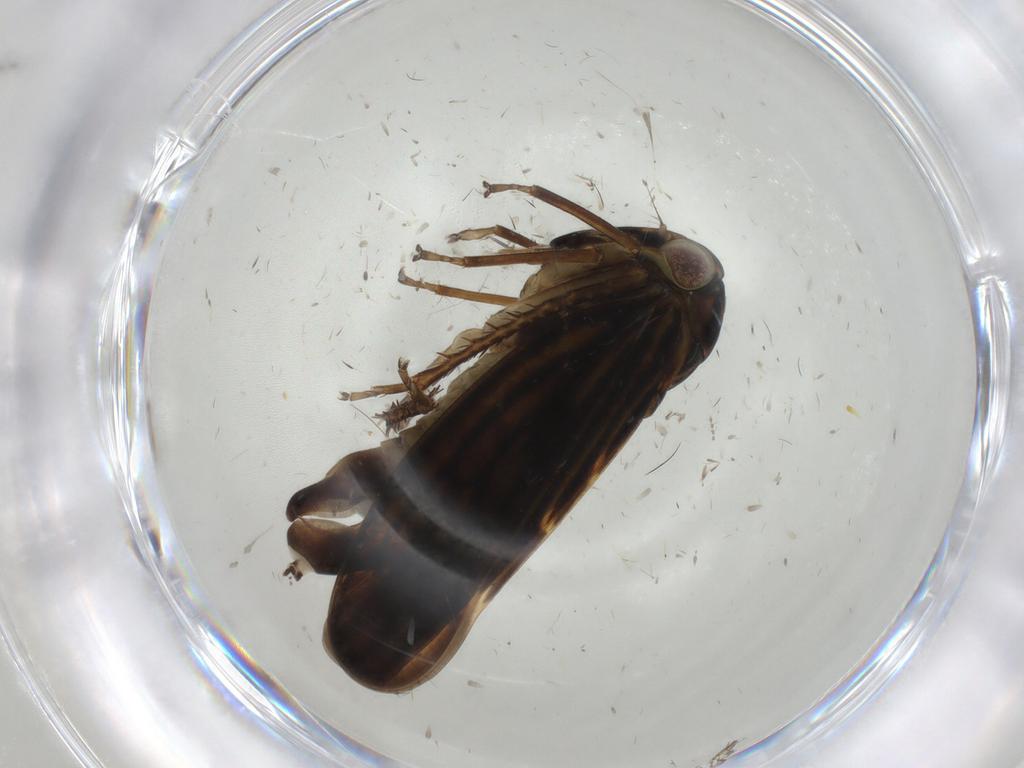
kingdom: Animalia
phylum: Arthropoda
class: Insecta
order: Hemiptera
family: Cicadellidae
